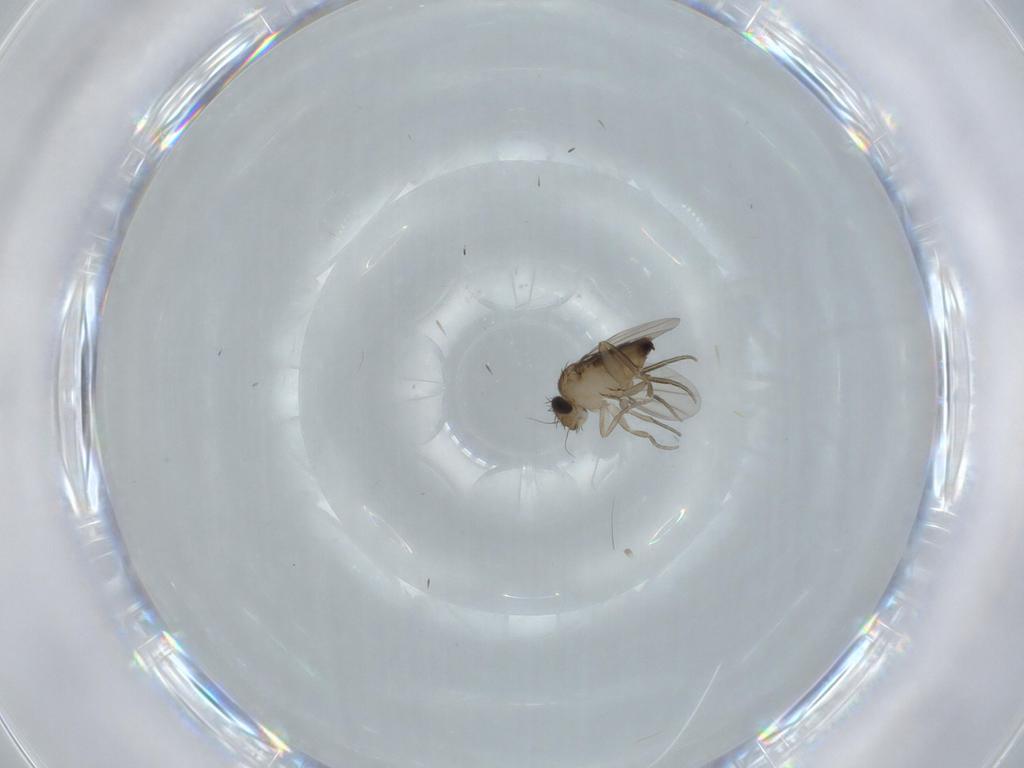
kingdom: Animalia
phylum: Arthropoda
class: Insecta
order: Diptera
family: Phoridae
